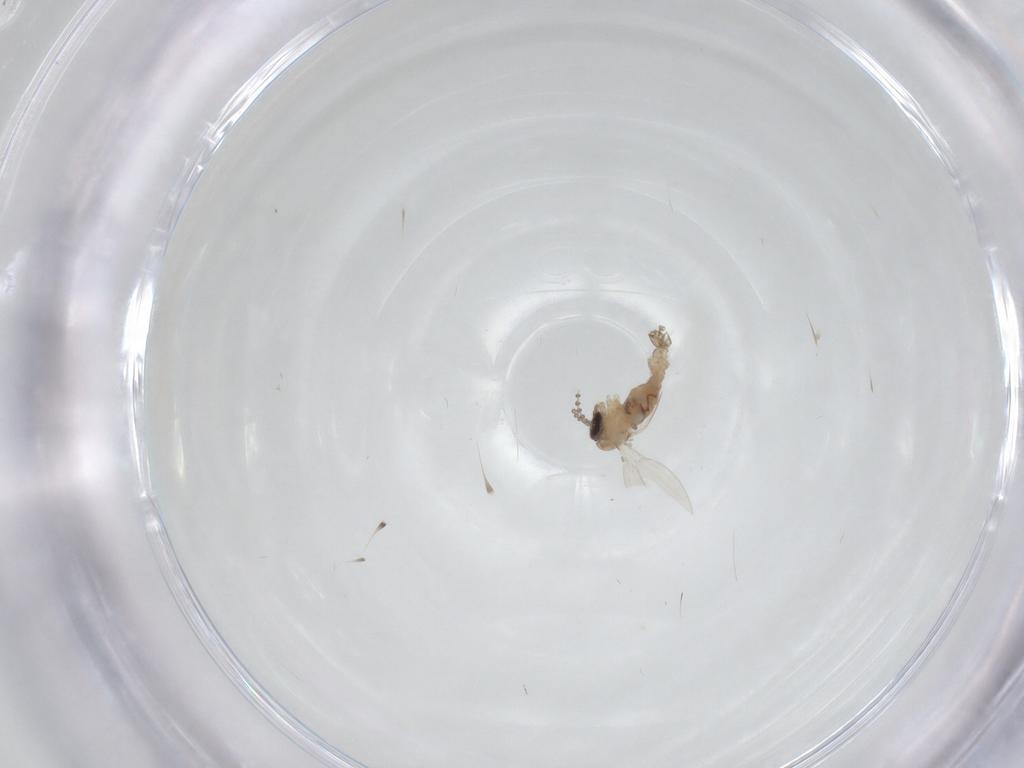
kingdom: Animalia
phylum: Arthropoda
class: Insecta
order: Diptera
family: Psychodidae
